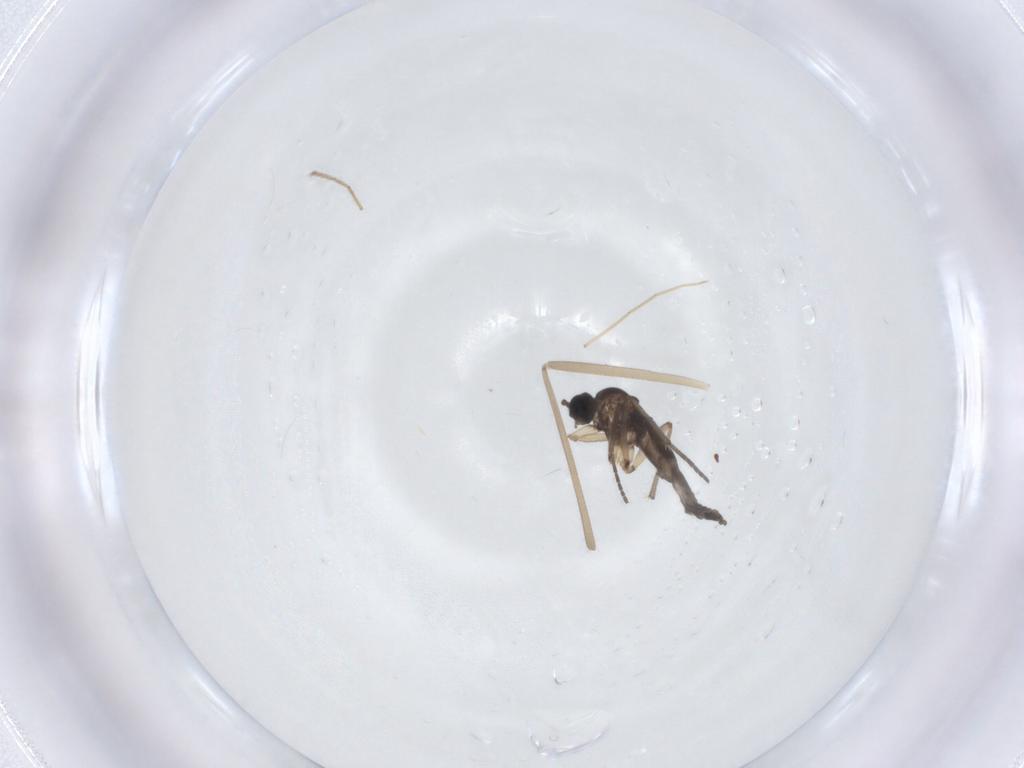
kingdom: Animalia
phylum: Arthropoda
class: Insecta
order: Diptera
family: Cecidomyiidae
